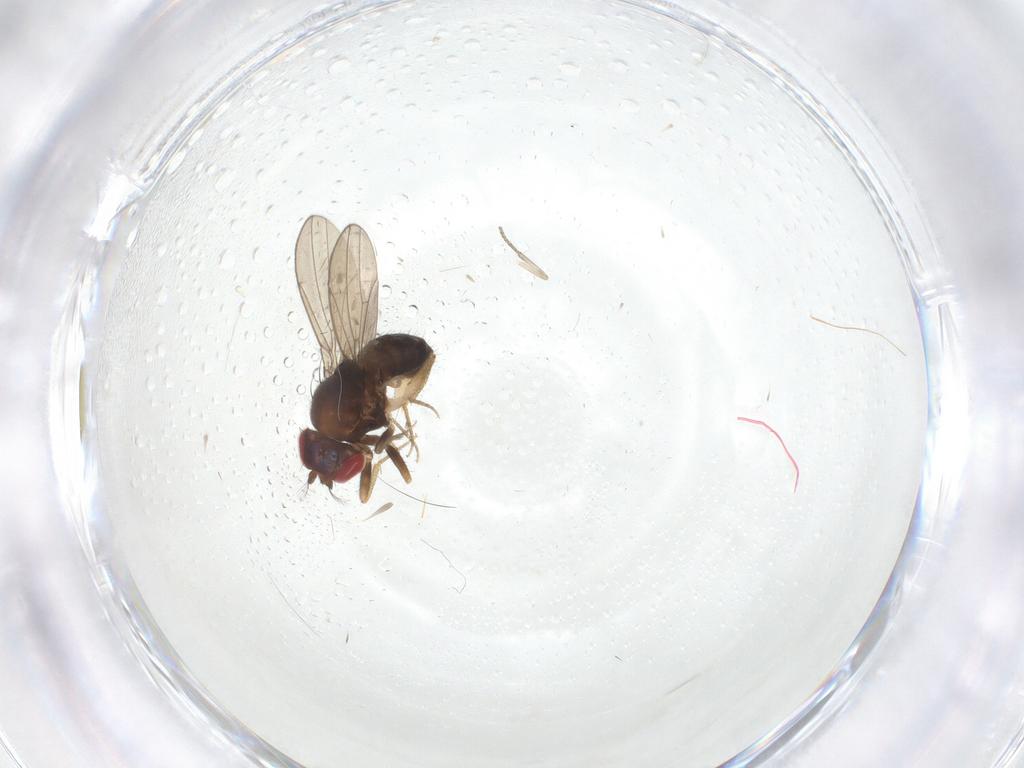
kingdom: Animalia
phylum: Arthropoda
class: Insecta
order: Diptera
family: Drosophilidae
